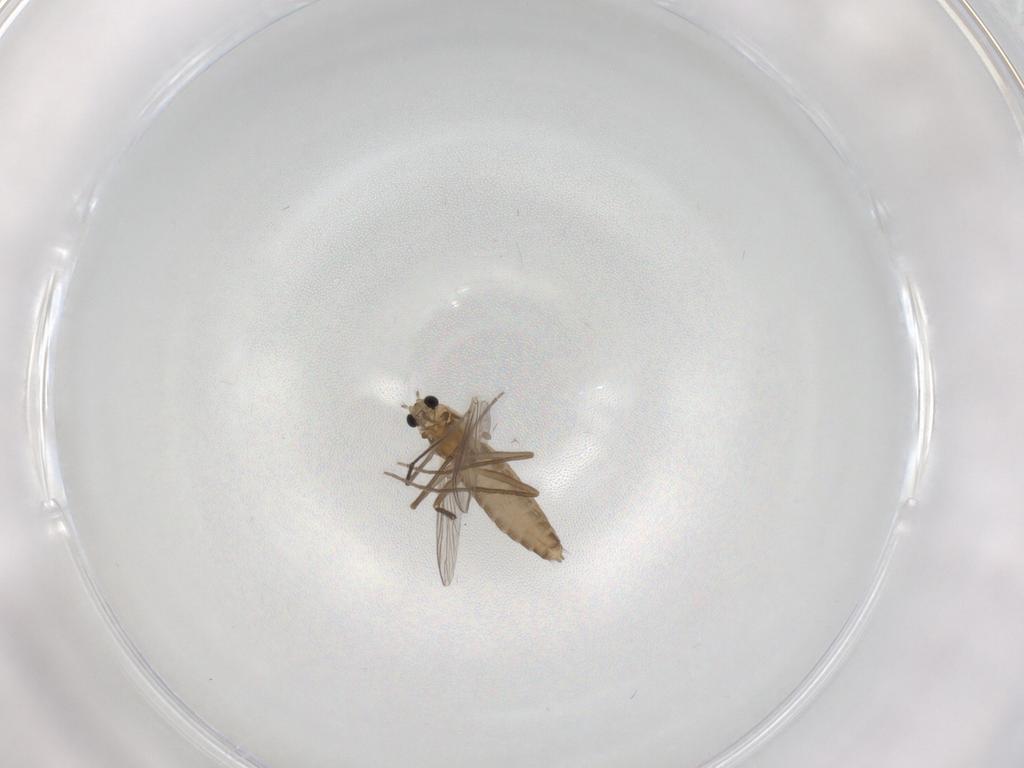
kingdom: Animalia
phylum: Arthropoda
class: Insecta
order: Diptera
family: Chironomidae
